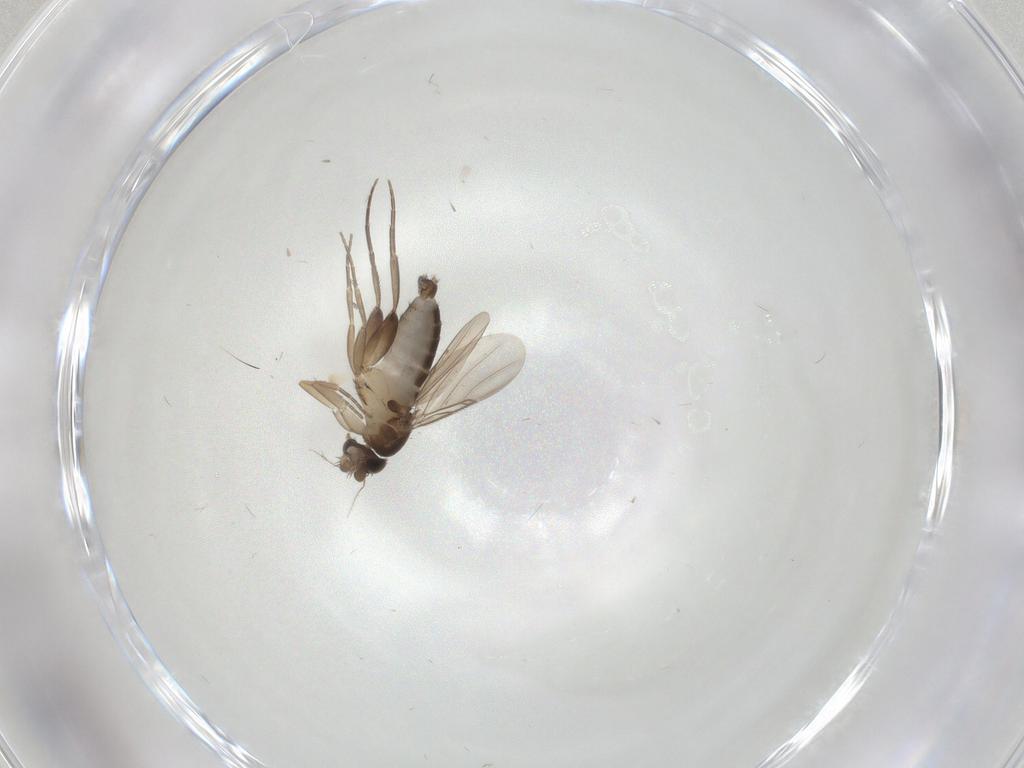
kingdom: Animalia
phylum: Arthropoda
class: Insecta
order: Diptera
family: Phoridae
